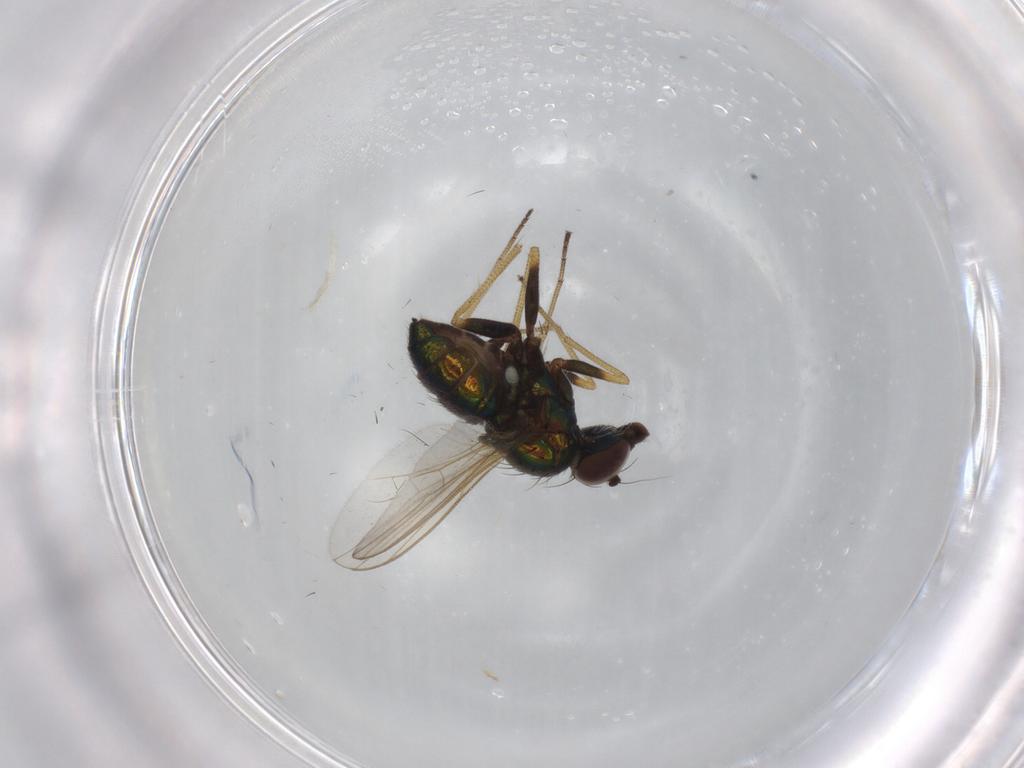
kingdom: Animalia
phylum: Arthropoda
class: Insecta
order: Diptera
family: Dolichopodidae
